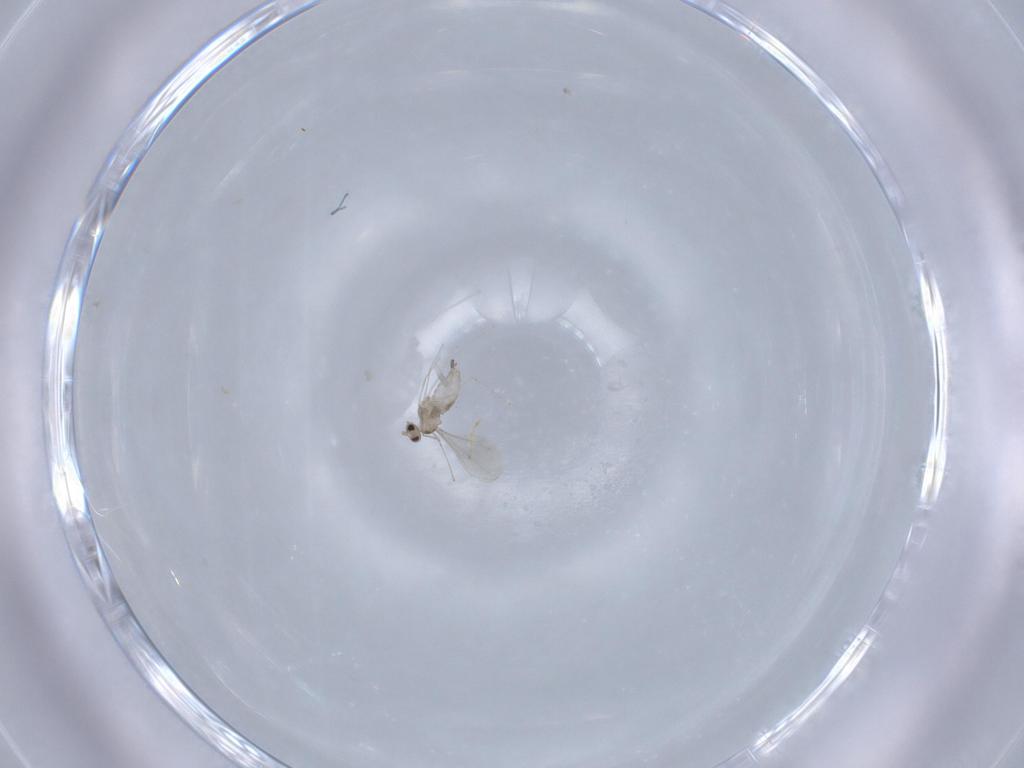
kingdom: Animalia
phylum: Arthropoda
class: Insecta
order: Diptera
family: Cecidomyiidae
